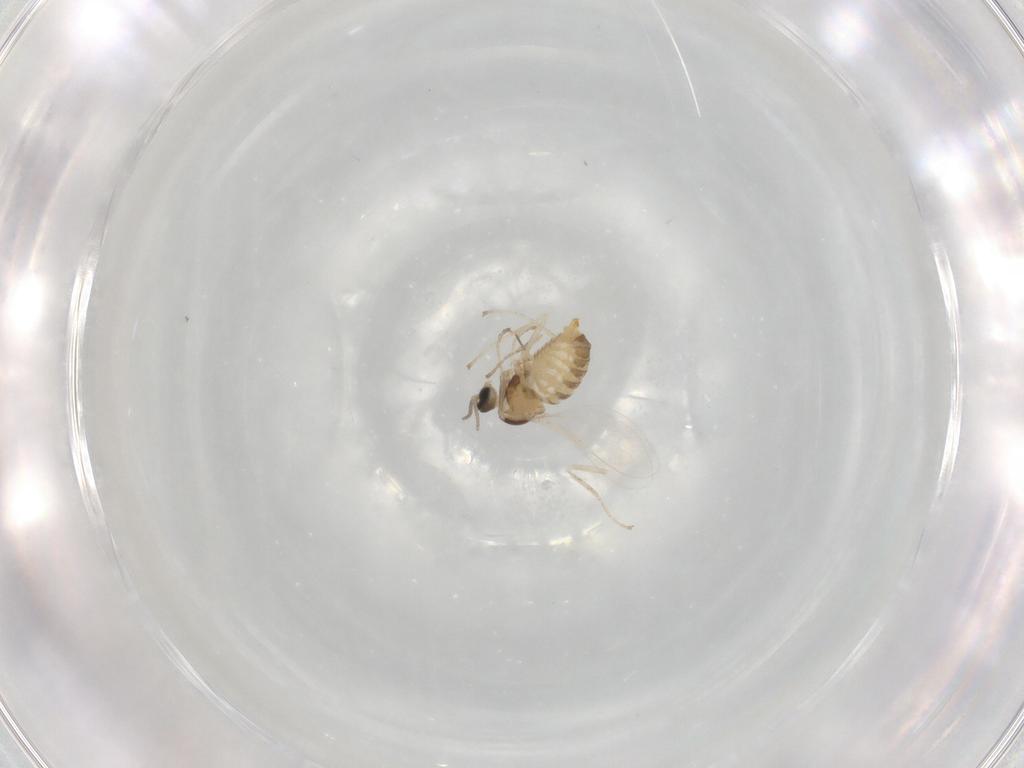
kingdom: Animalia
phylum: Arthropoda
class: Insecta
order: Diptera
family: Cecidomyiidae
